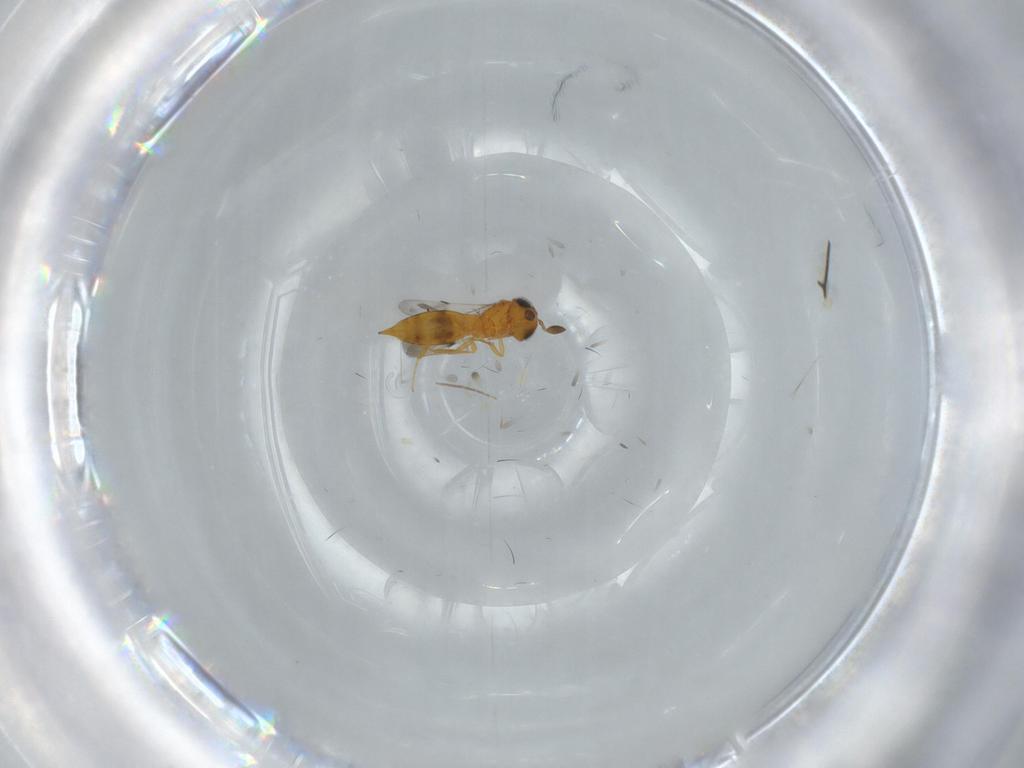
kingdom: Animalia
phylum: Arthropoda
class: Insecta
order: Hymenoptera
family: Scelionidae
